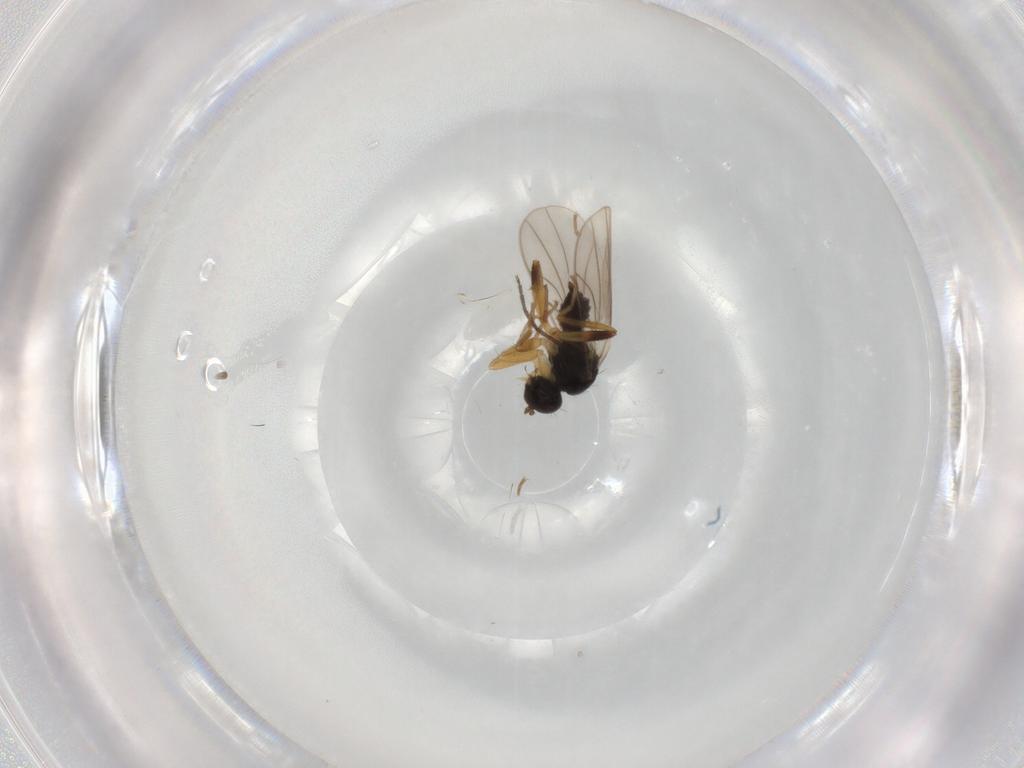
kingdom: Animalia
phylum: Arthropoda
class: Insecta
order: Diptera
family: Hybotidae
